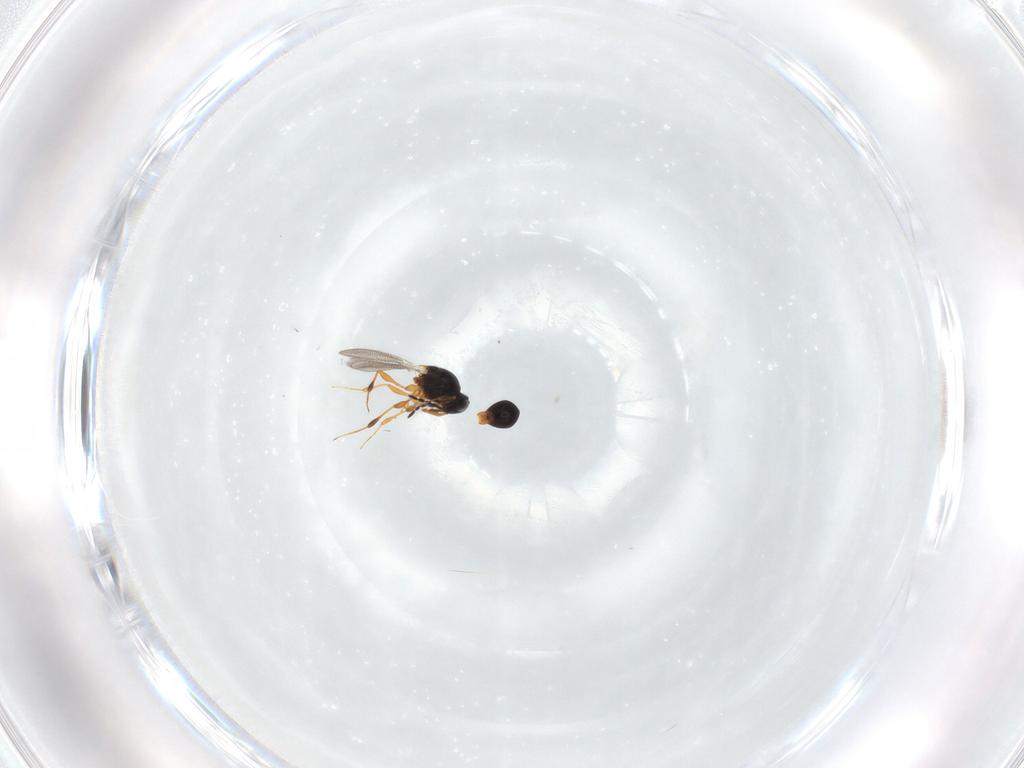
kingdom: Animalia
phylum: Arthropoda
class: Insecta
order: Hymenoptera
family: Platygastridae
